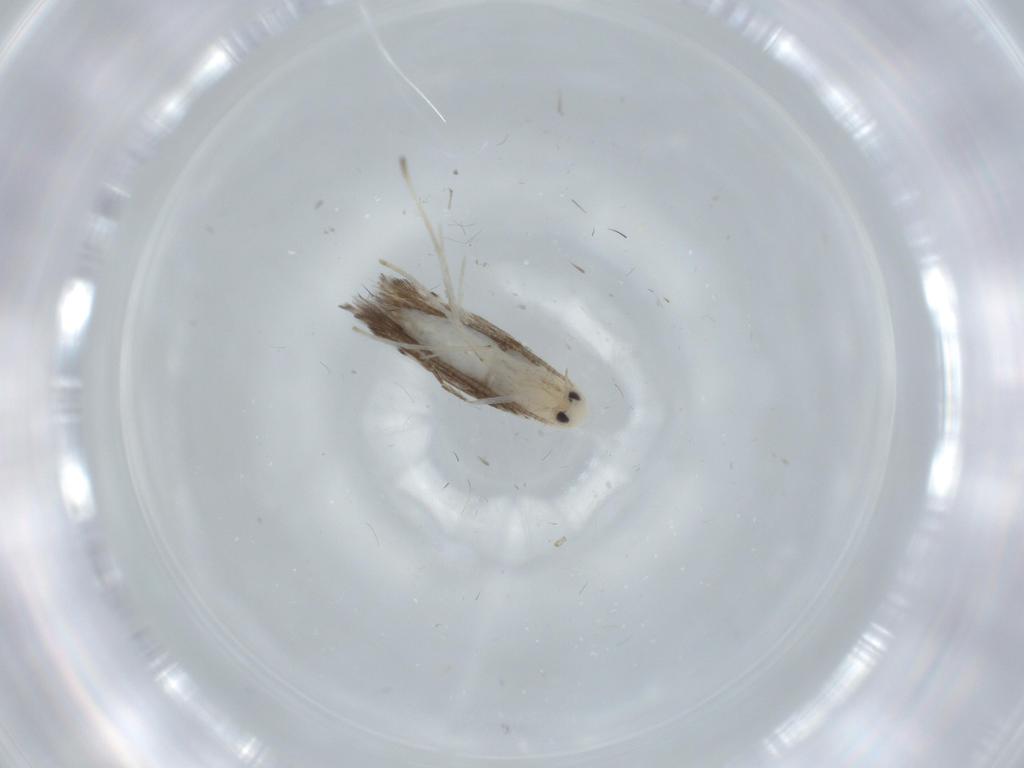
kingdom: Animalia
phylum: Arthropoda
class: Insecta
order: Lepidoptera
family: Gracillariidae
